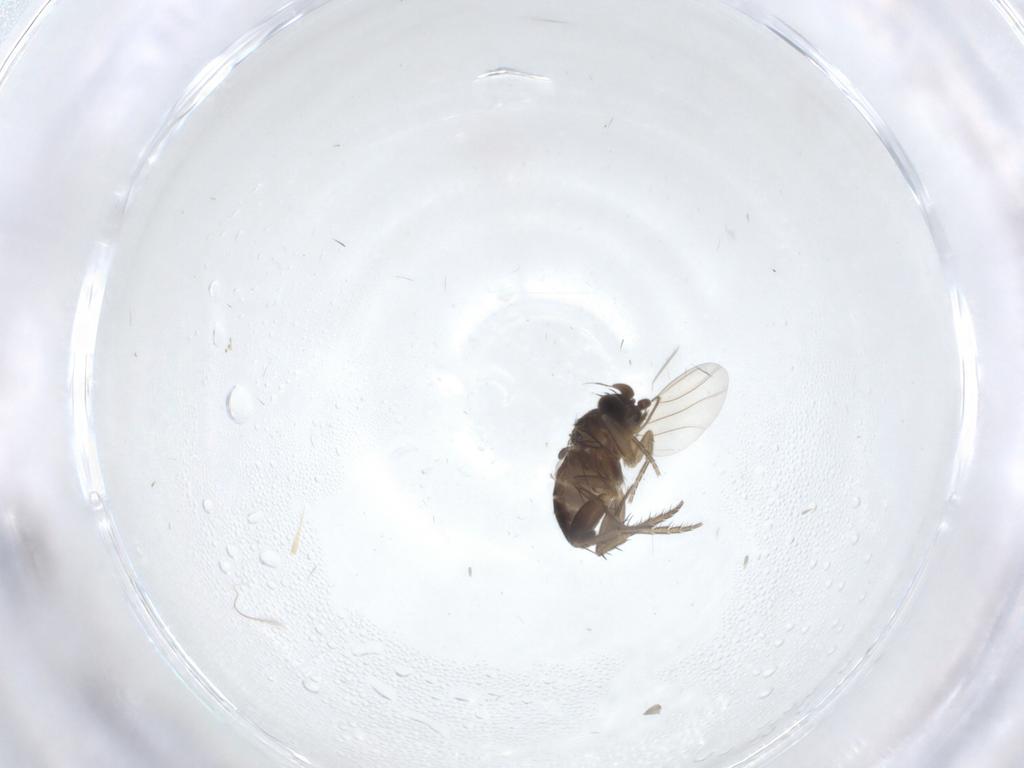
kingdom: Animalia
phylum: Arthropoda
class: Insecta
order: Diptera
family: Phoridae
